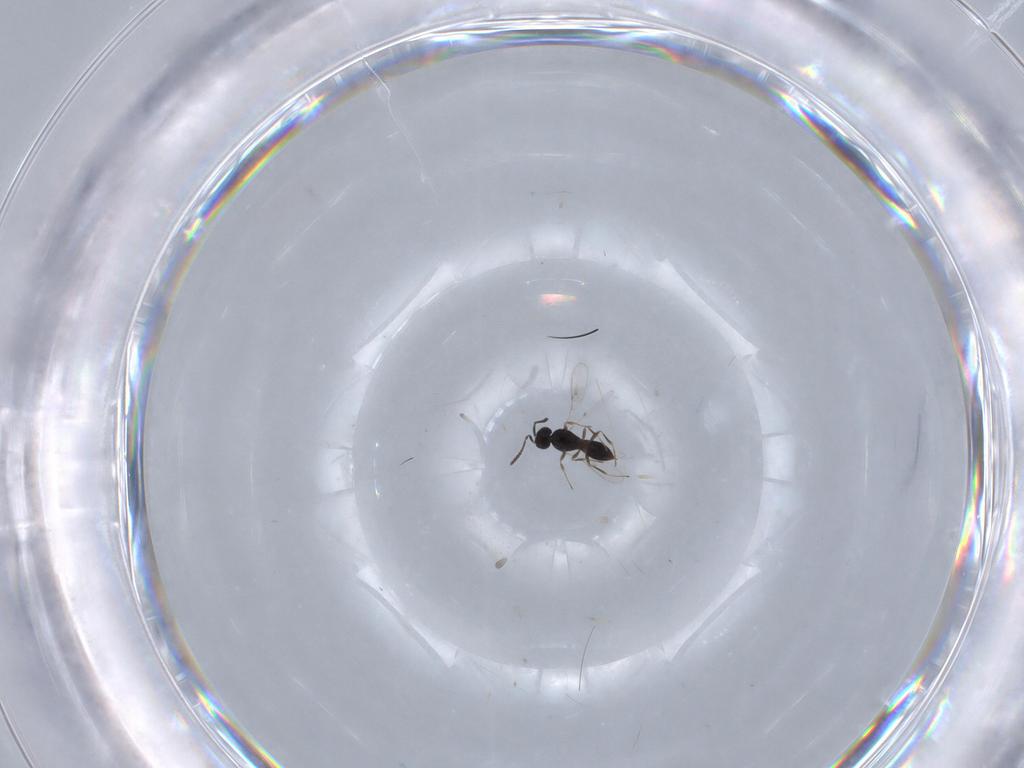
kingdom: Animalia
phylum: Arthropoda
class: Insecta
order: Hymenoptera
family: Scelionidae
